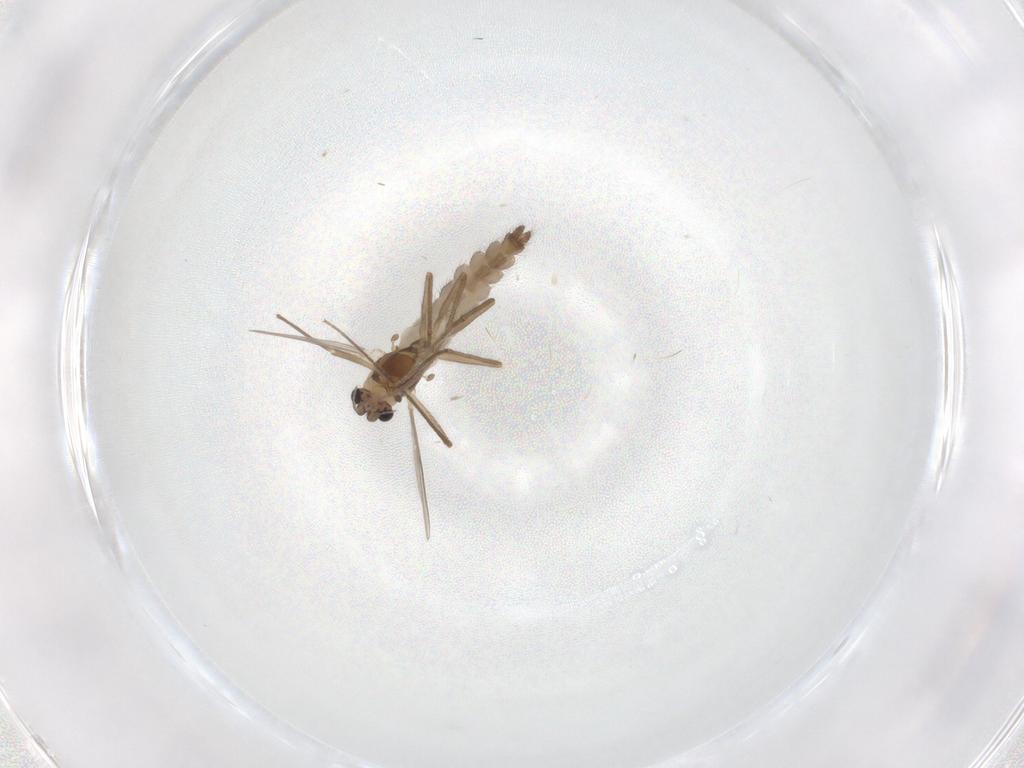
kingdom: Animalia
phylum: Arthropoda
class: Insecta
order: Diptera
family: Chironomidae
